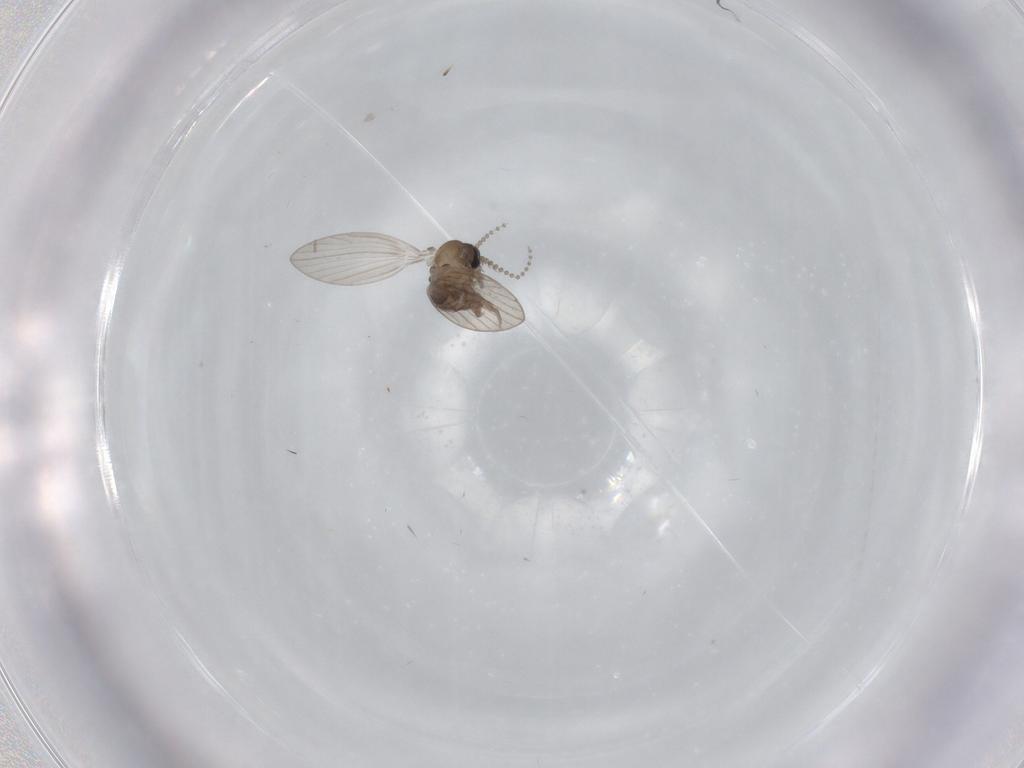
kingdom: Animalia
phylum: Arthropoda
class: Insecta
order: Diptera
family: Psychodidae
